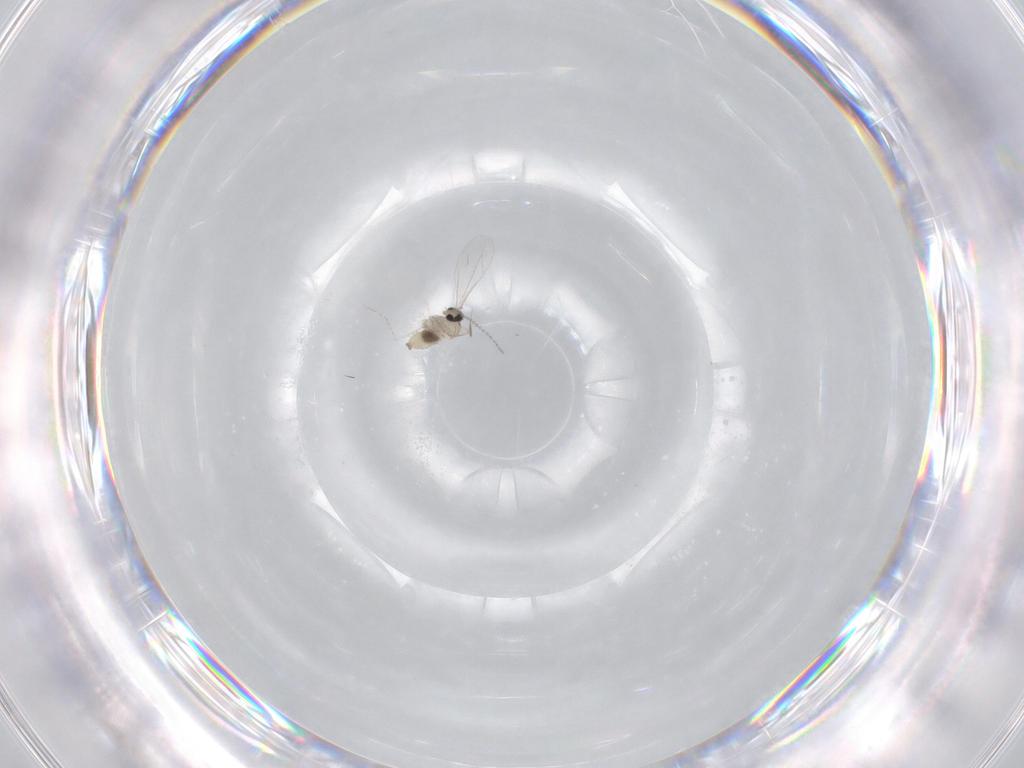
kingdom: Animalia
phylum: Arthropoda
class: Insecta
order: Diptera
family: Cecidomyiidae
